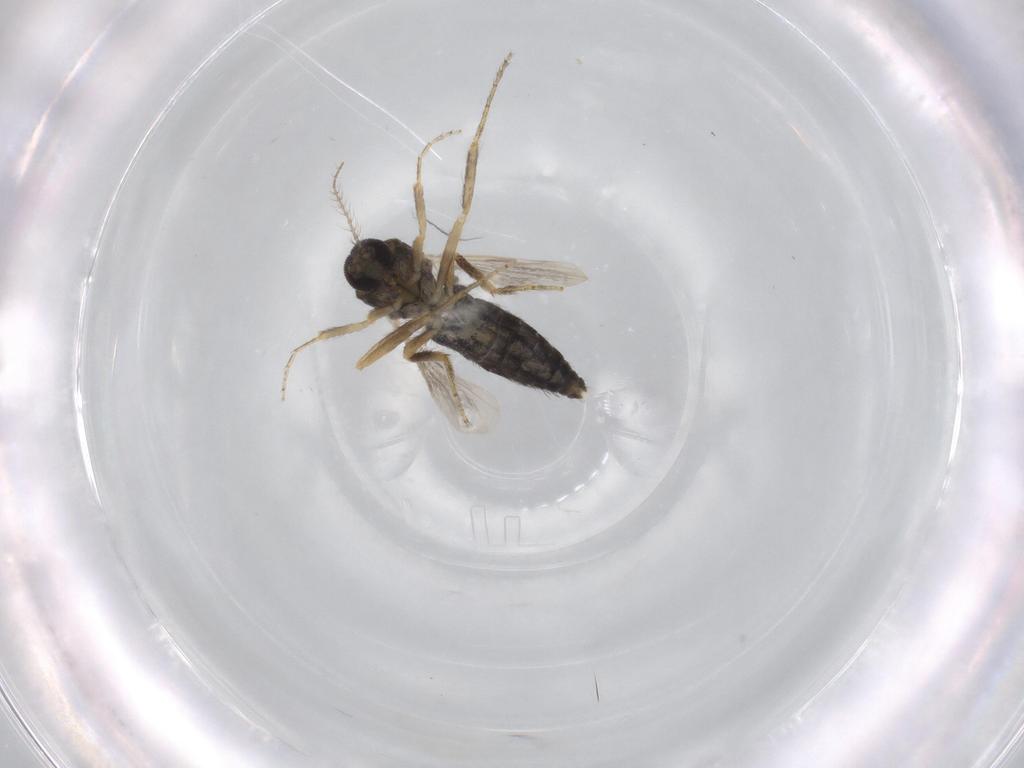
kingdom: Animalia
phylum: Arthropoda
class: Insecta
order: Diptera
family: Ceratopogonidae
